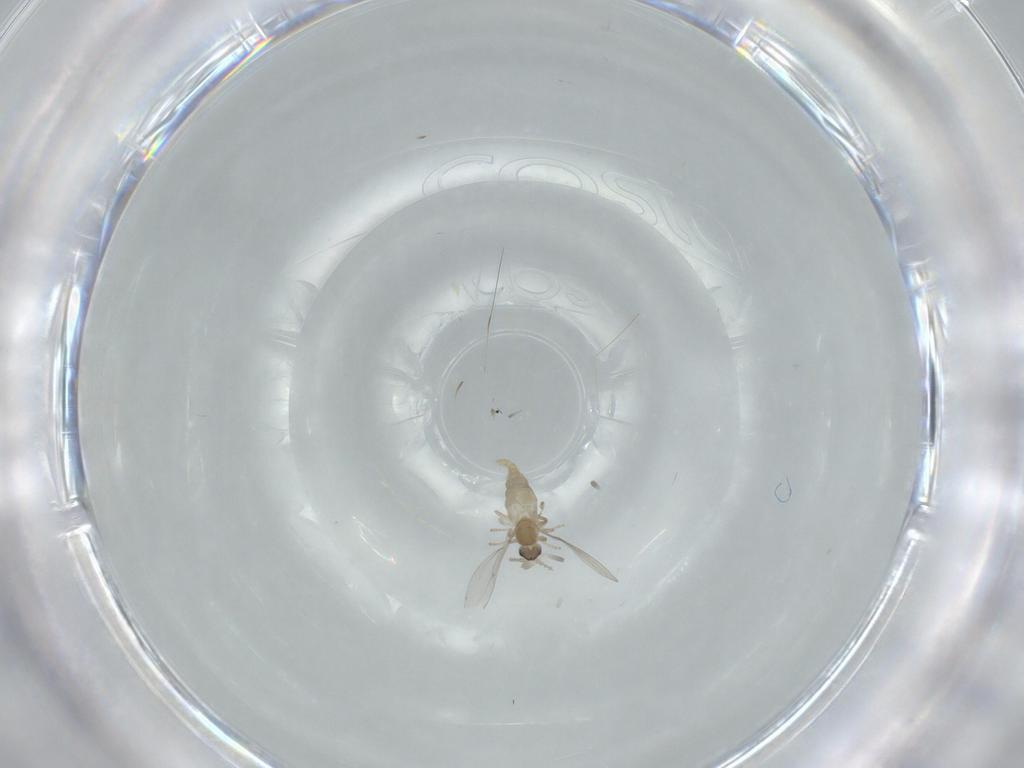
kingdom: Animalia
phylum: Arthropoda
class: Insecta
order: Diptera
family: Cecidomyiidae
